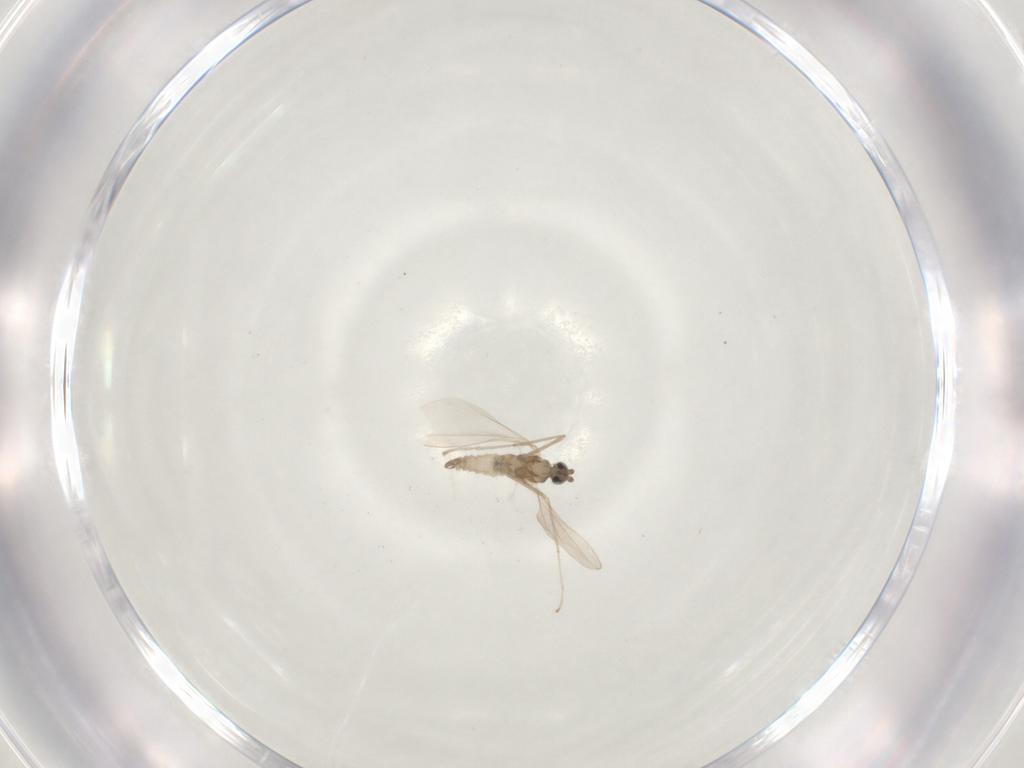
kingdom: Animalia
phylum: Arthropoda
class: Insecta
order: Diptera
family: Cecidomyiidae
